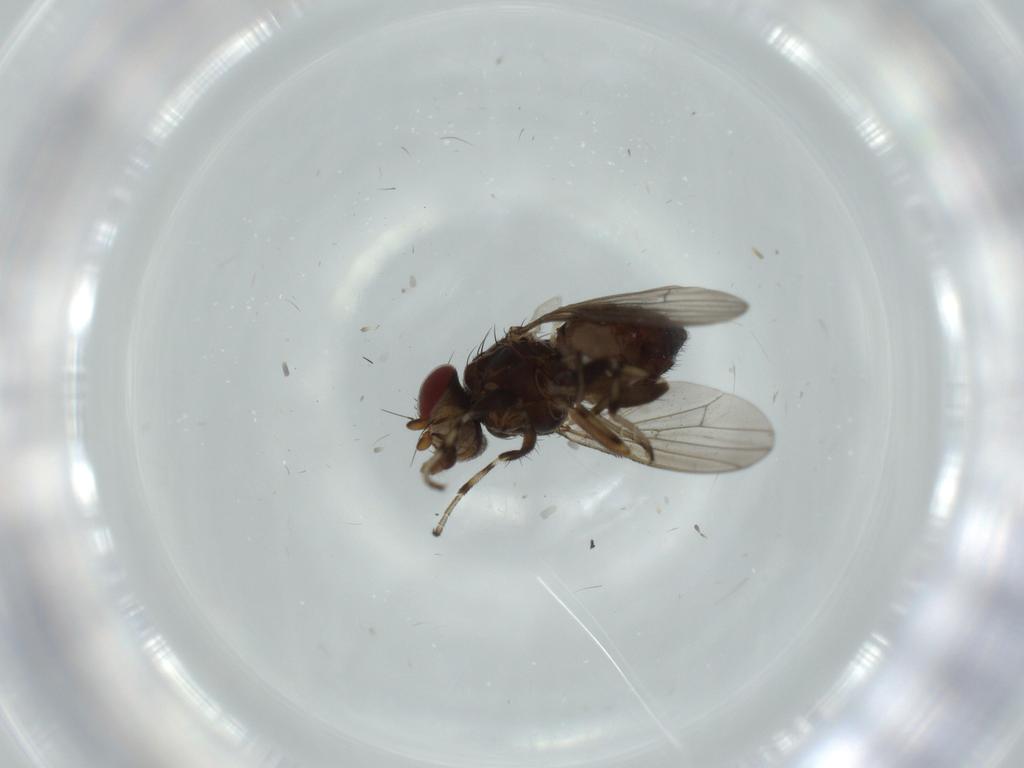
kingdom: Animalia
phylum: Arthropoda
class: Insecta
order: Diptera
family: Heleomyzidae
